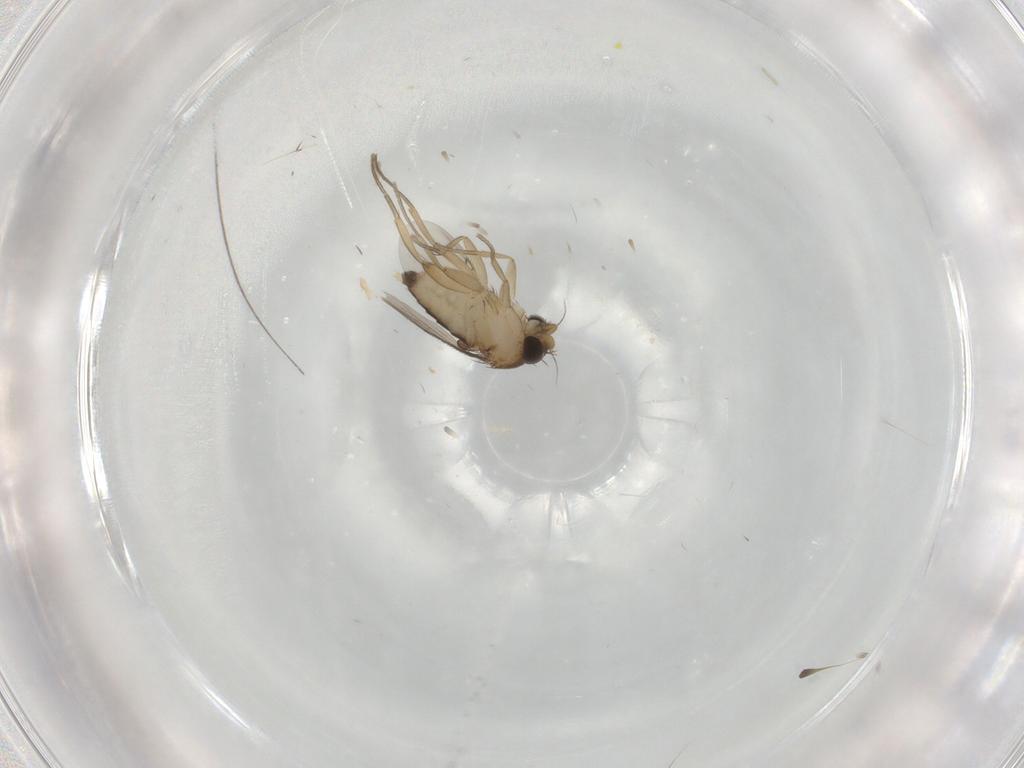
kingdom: Animalia
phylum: Arthropoda
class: Insecta
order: Diptera
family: Phoridae
